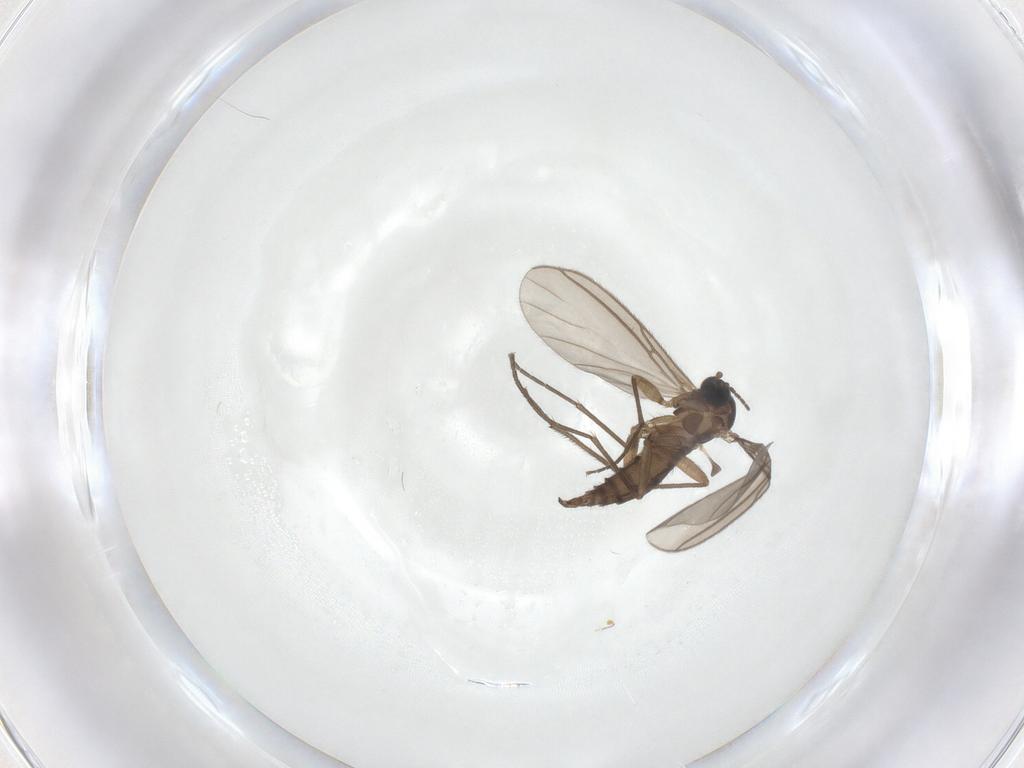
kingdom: Animalia
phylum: Arthropoda
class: Insecta
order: Diptera
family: Sciaridae
